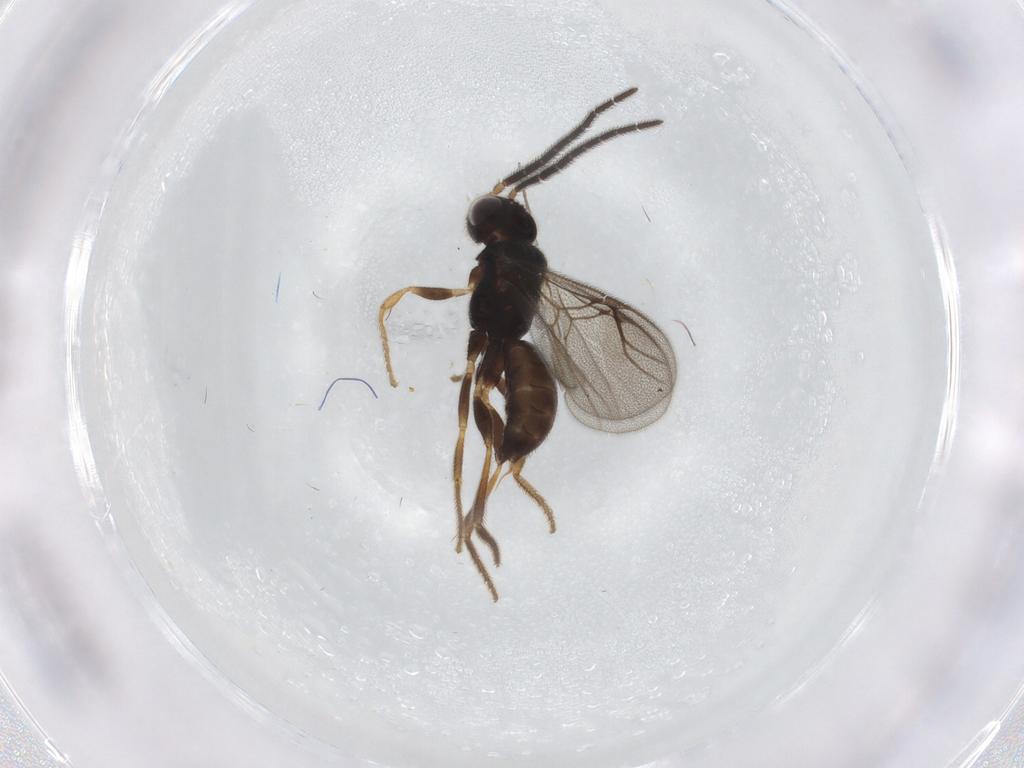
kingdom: Animalia
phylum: Arthropoda
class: Insecta
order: Hymenoptera
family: Dryinidae
